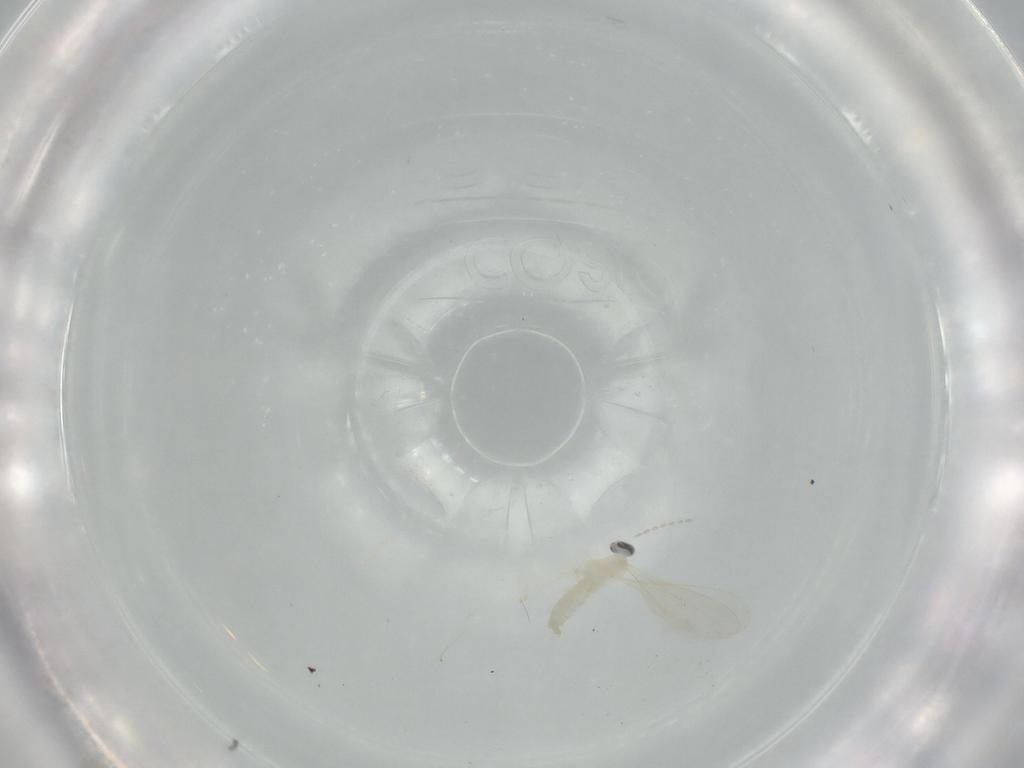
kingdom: Animalia
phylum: Arthropoda
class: Insecta
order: Diptera
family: Cecidomyiidae
